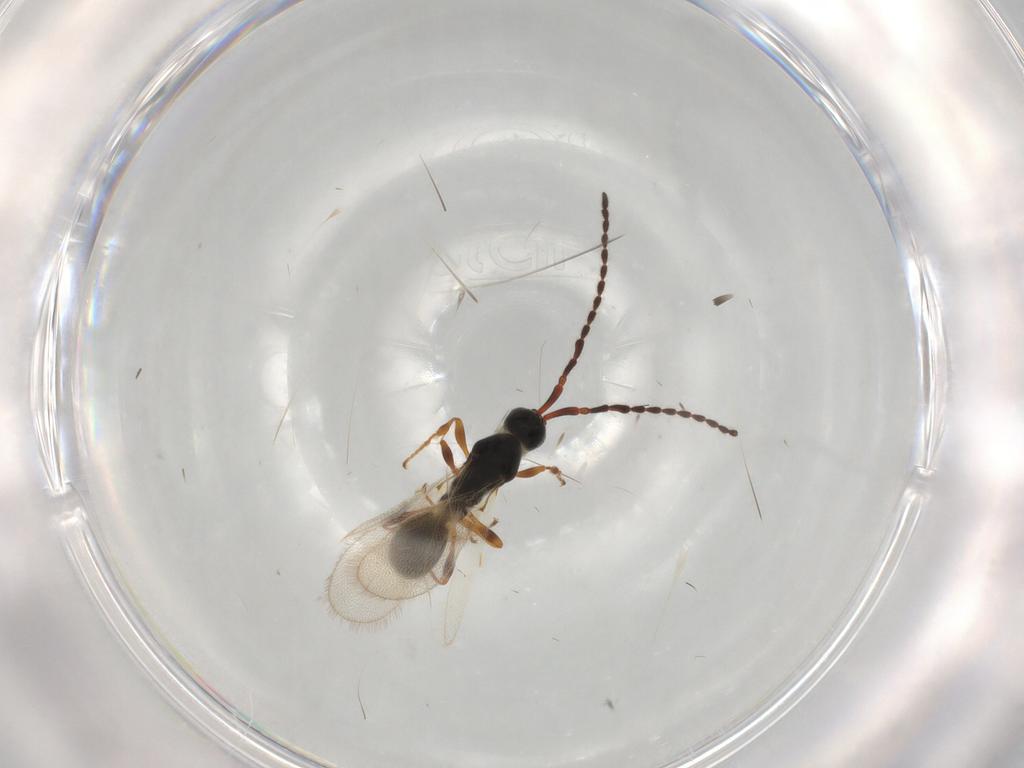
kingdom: Animalia
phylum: Arthropoda
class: Insecta
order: Hymenoptera
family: Diapriidae
